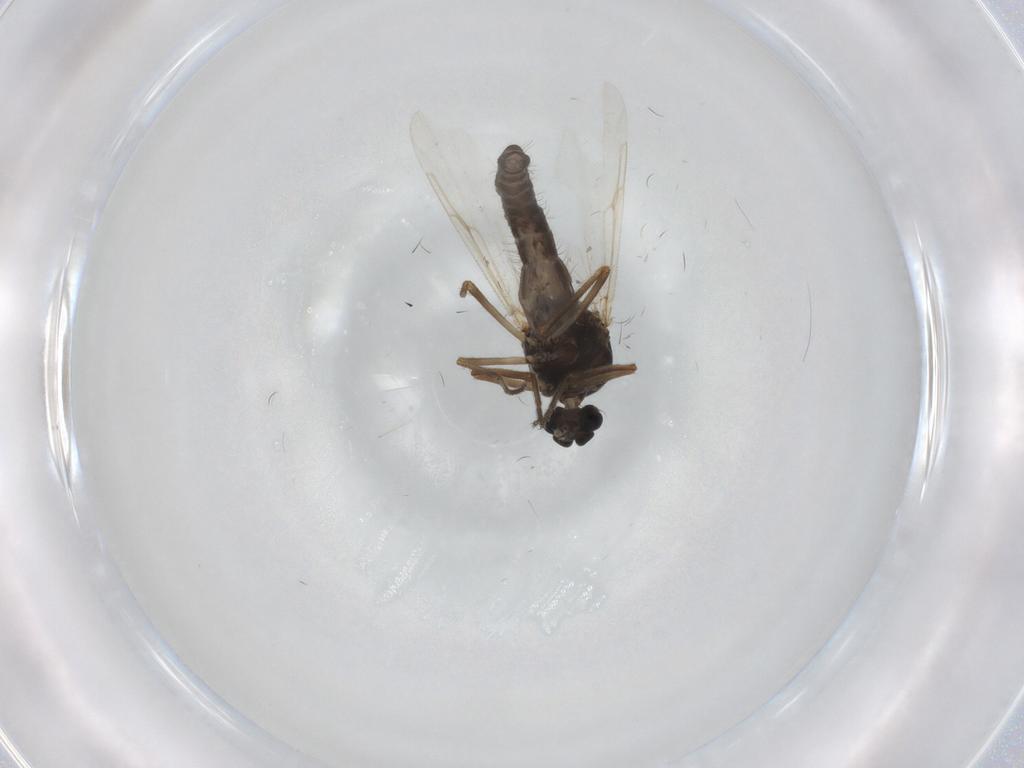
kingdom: Animalia
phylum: Arthropoda
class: Insecta
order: Diptera
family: Ceratopogonidae
